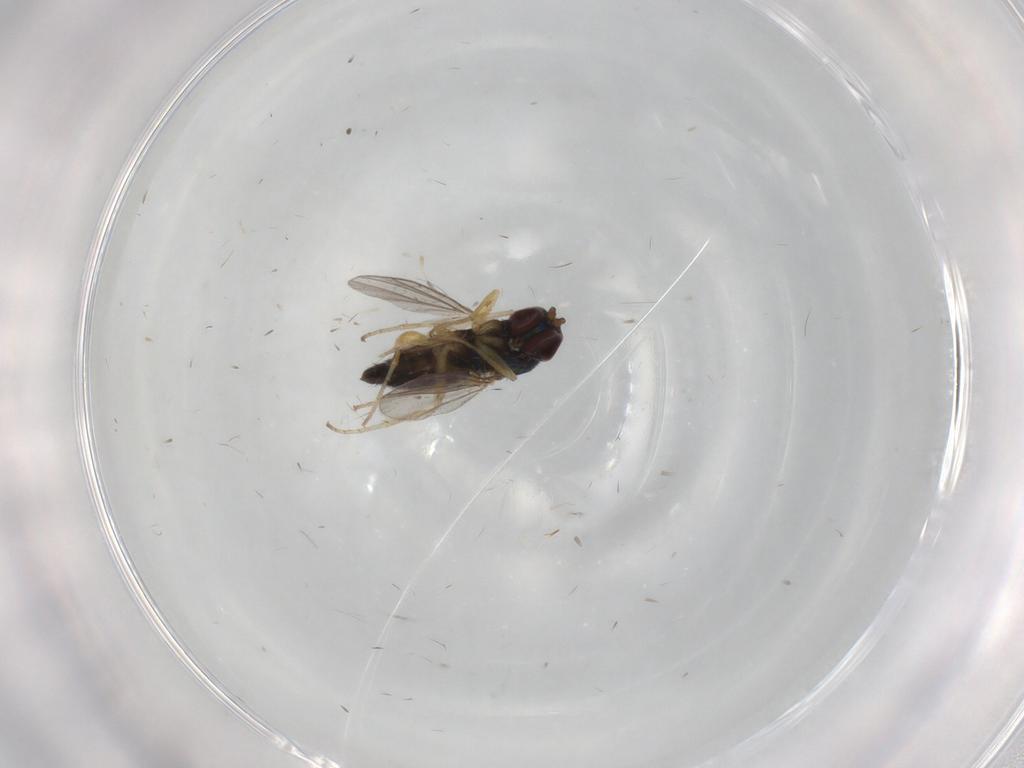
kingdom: Animalia
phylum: Arthropoda
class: Insecta
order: Diptera
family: Dolichopodidae
